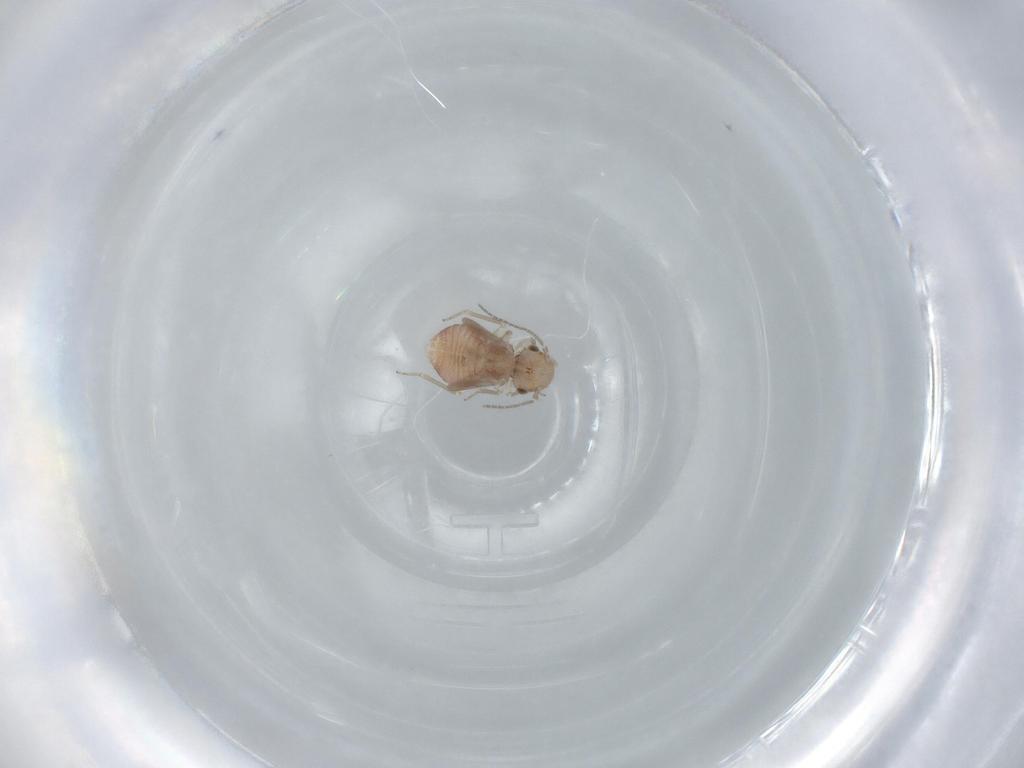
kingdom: Animalia
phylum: Arthropoda
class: Insecta
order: Psocodea
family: Ectopsocidae
